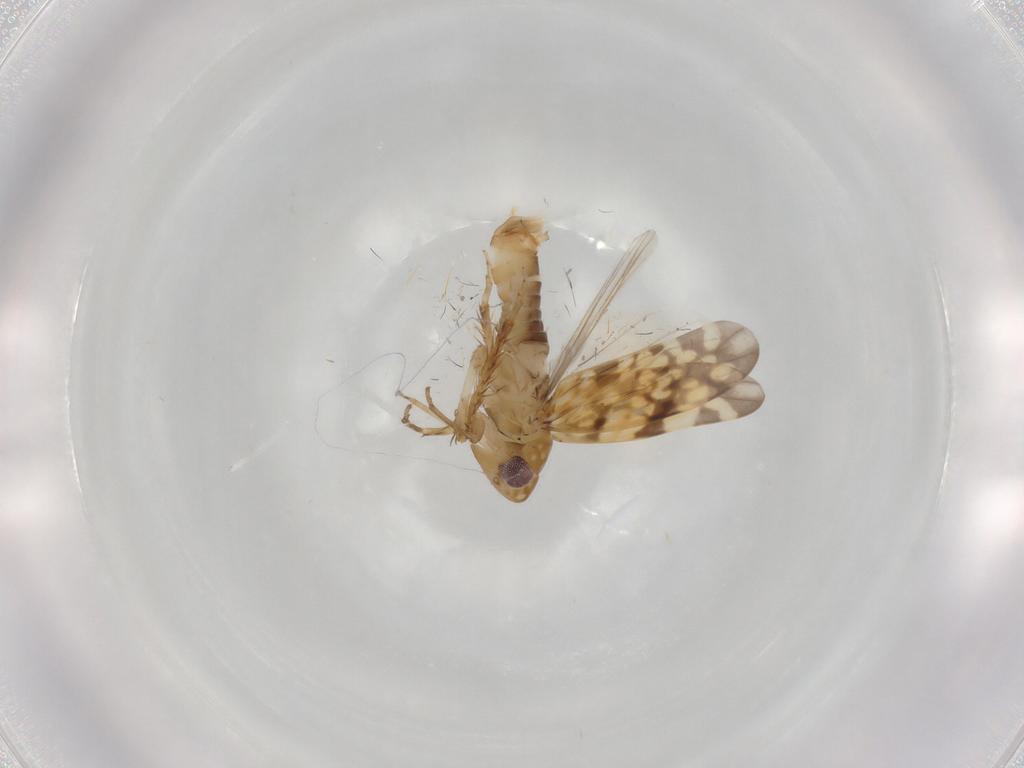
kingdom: Animalia
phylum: Arthropoda
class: Insecta
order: Hemiptera
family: Cicadellidae
